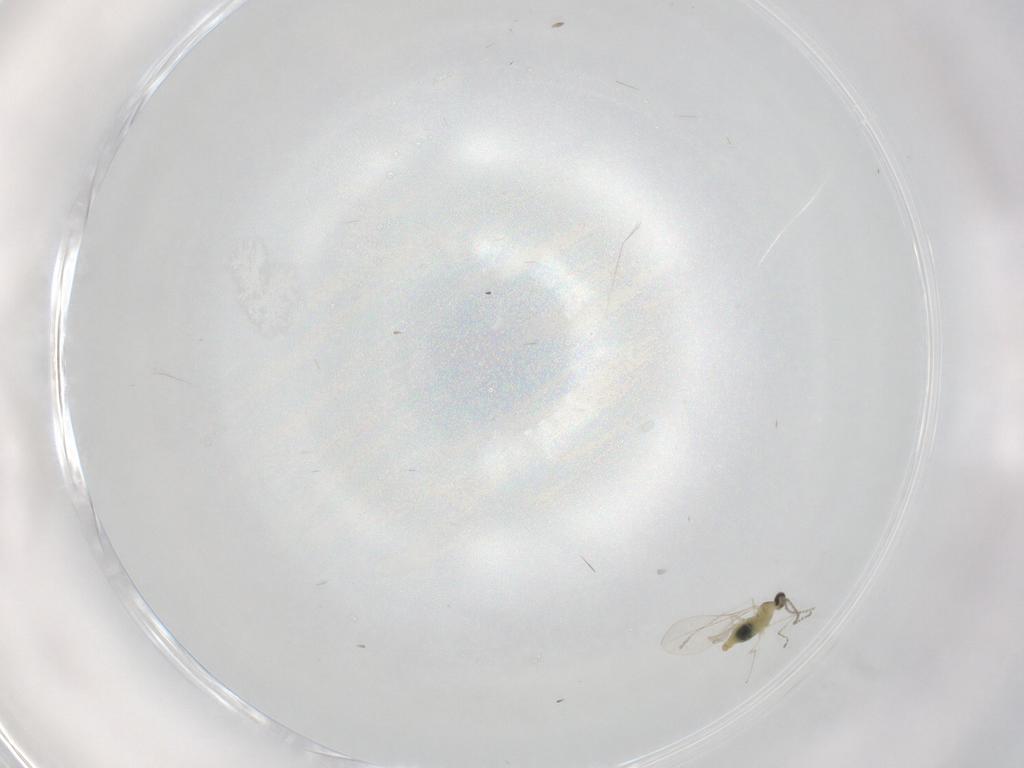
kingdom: Animalia
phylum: Arthropoda
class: Insecta
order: Diptera
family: Cecidomyiidae
